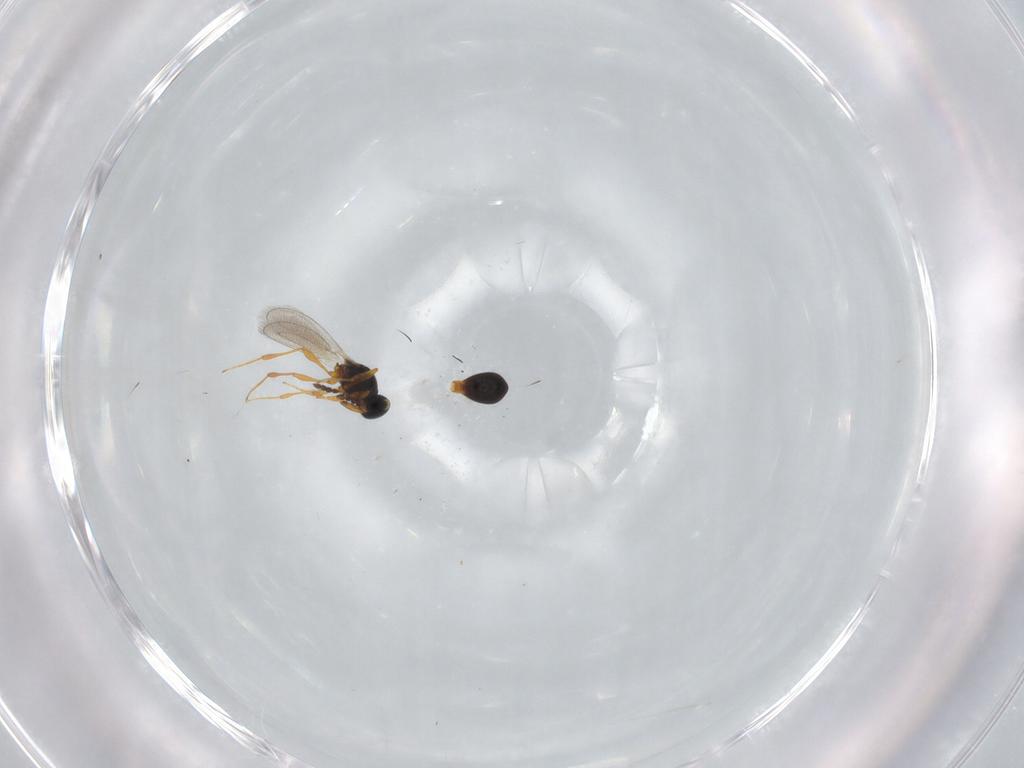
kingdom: Animalia
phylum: Arthropoda
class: Insecta
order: Hymenoptera
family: Platygastridae
